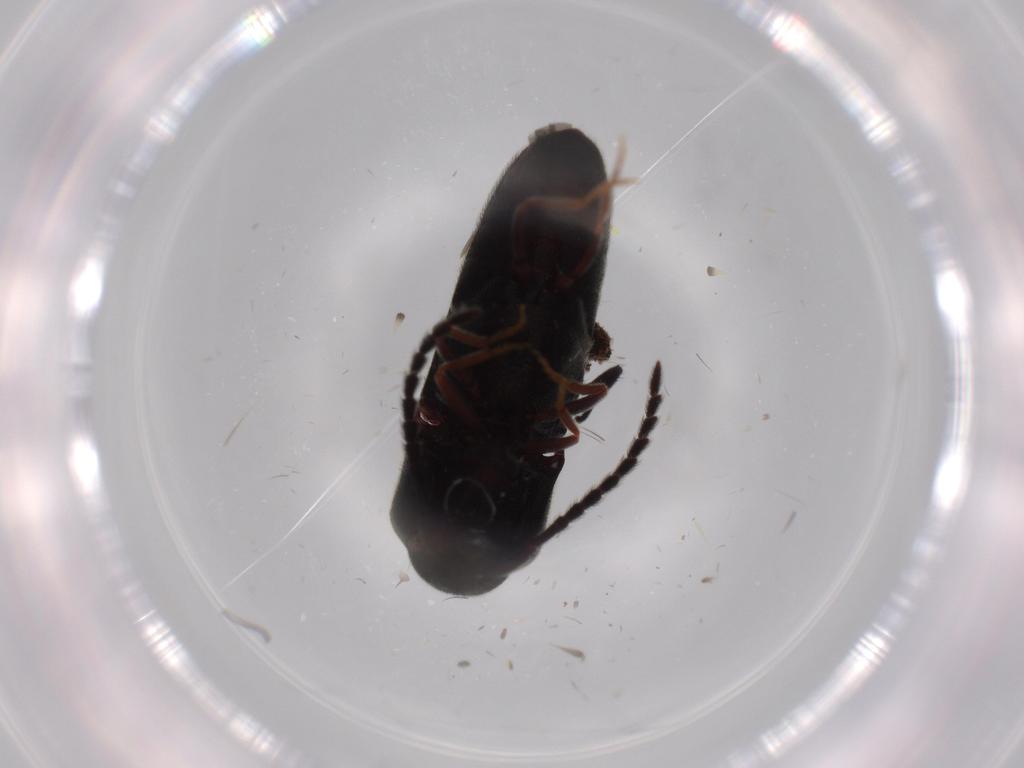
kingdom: Animalia
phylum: Arthropoda
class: Insecta
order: Coleoptera
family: Eucnemidae
